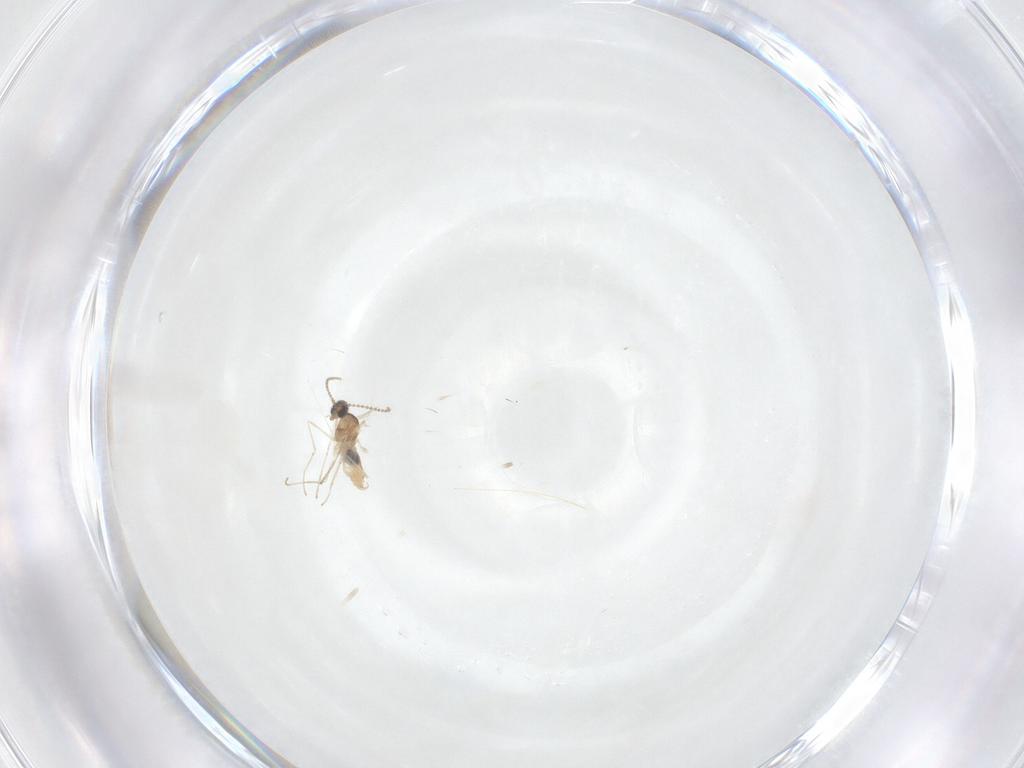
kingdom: Animalia
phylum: Arthropoda
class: Insecta
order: Diptera
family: Cecidomyiidae
